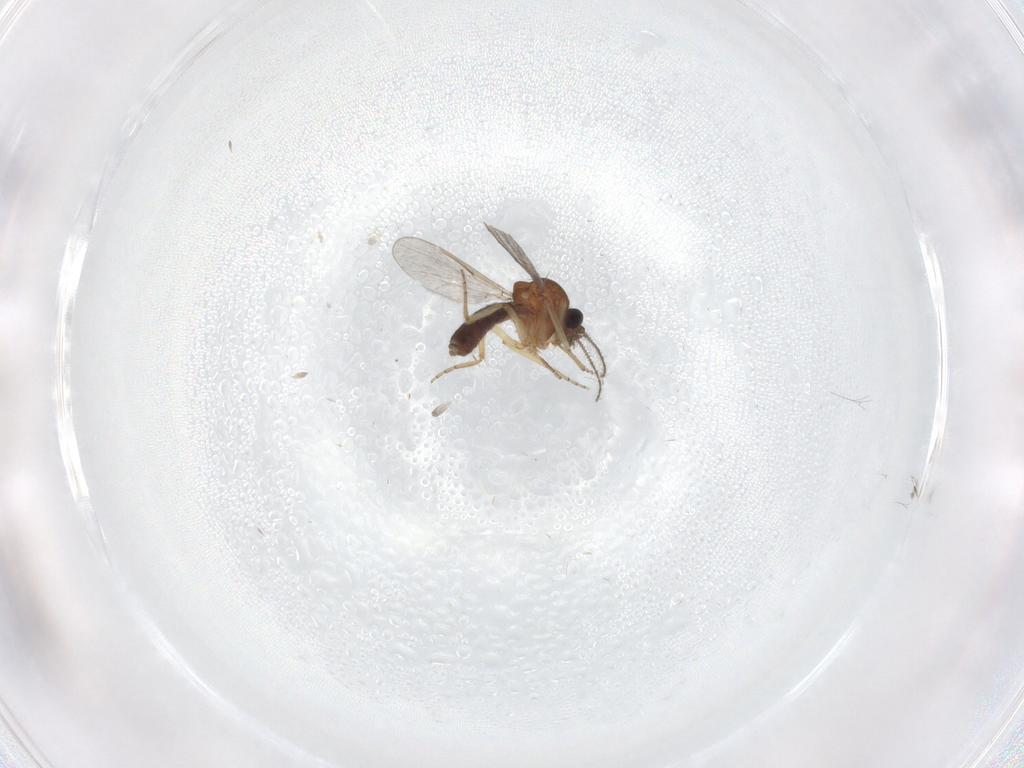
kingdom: Animalia
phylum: Arthropoda
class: Insecta
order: Diptera
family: Ceratopogonidae
